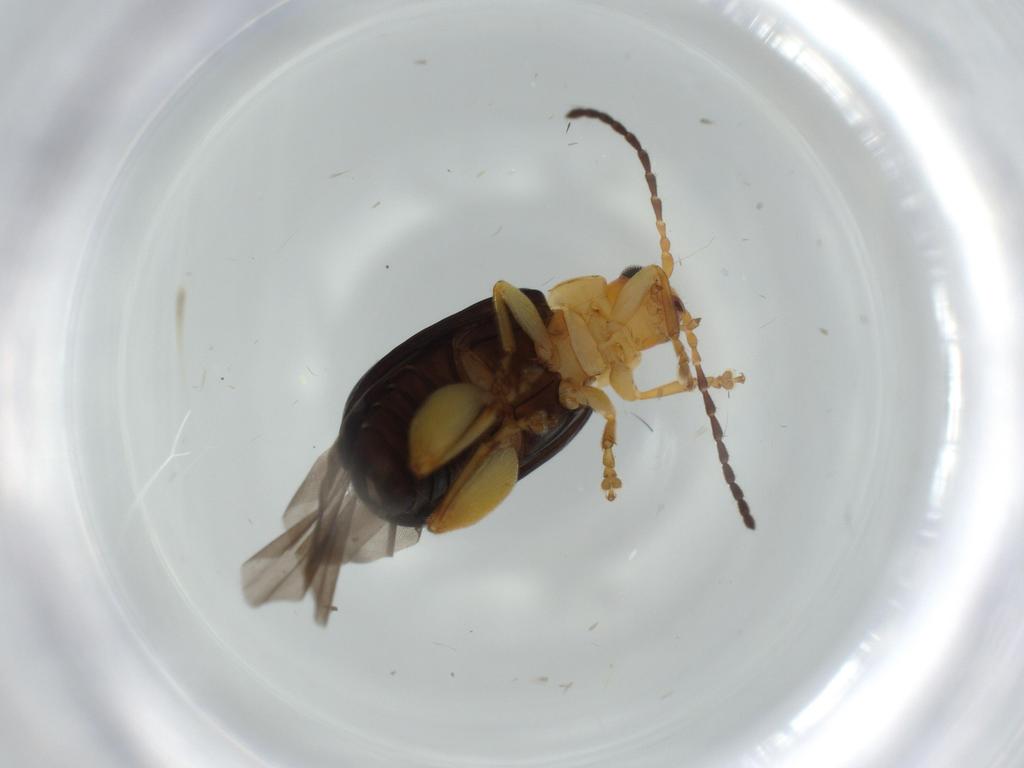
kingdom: Animalia
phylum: Arthropoda
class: Insecta
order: Coleoptera
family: Chrysomelidae
